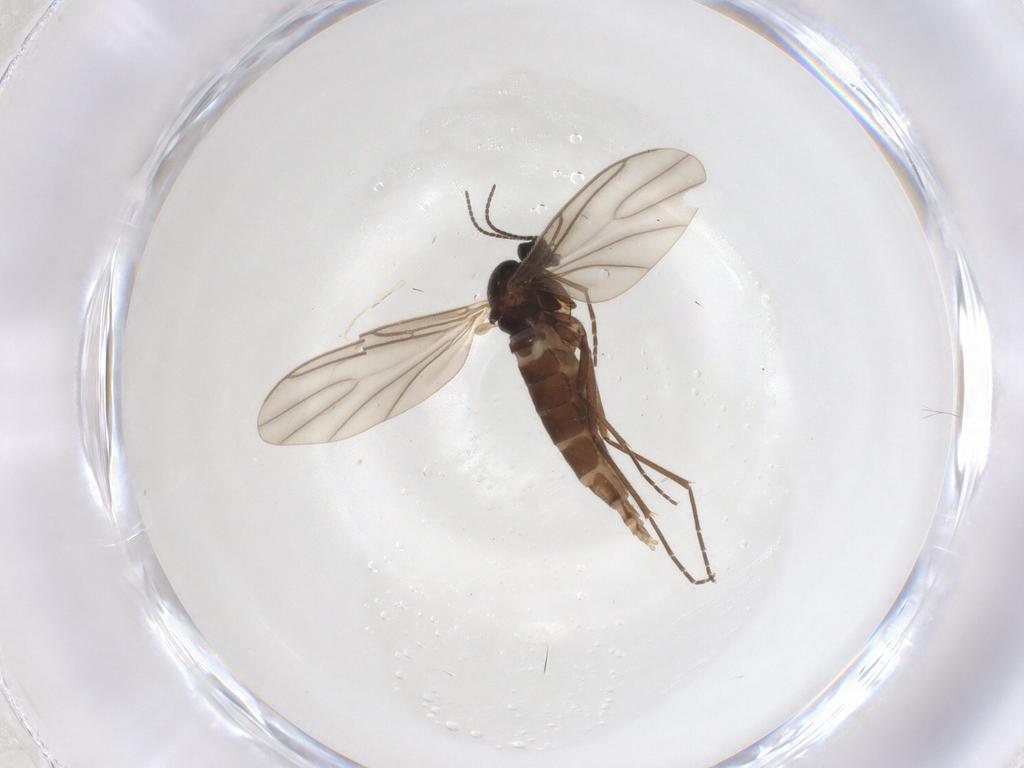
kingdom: Animalia
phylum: Arthropoda
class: Insecta
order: Diptera
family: Sciaridae
